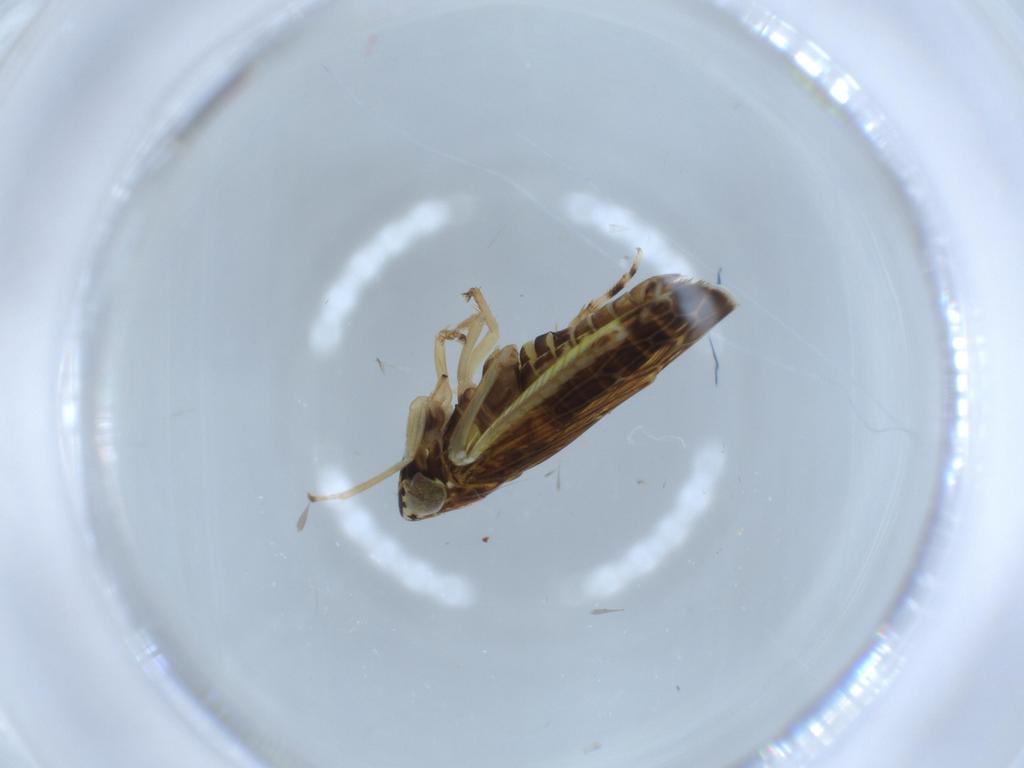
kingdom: Animalia
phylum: Arthropoda
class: Insecta
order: Hemiptera
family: Cicadellidae
